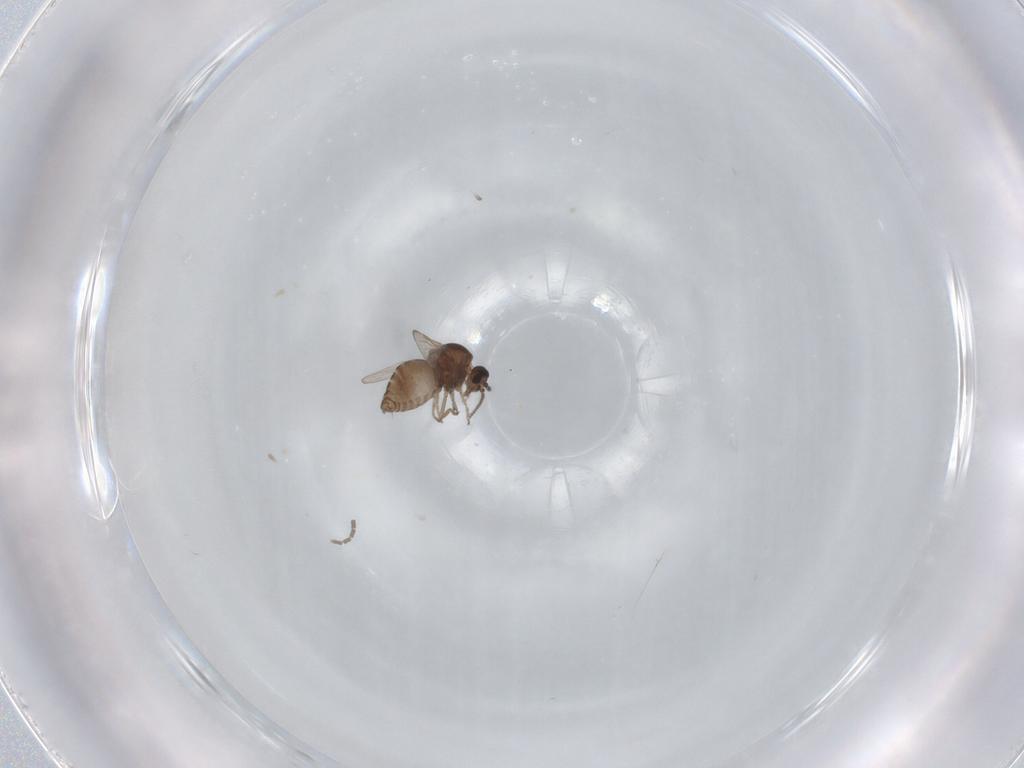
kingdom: Animalia
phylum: Arthropoda
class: Insecta
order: Diptera
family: Ceratopogonidae
